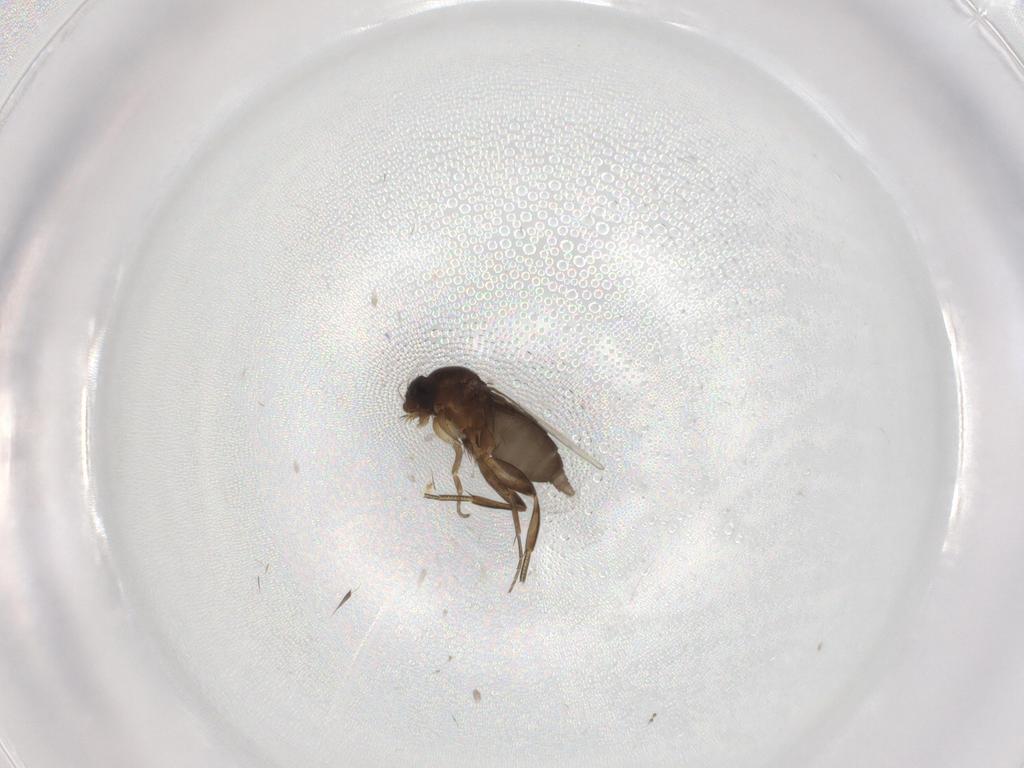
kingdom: Animalia
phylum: Arthropoda
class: Insecta
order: Diptera
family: Phoridae
